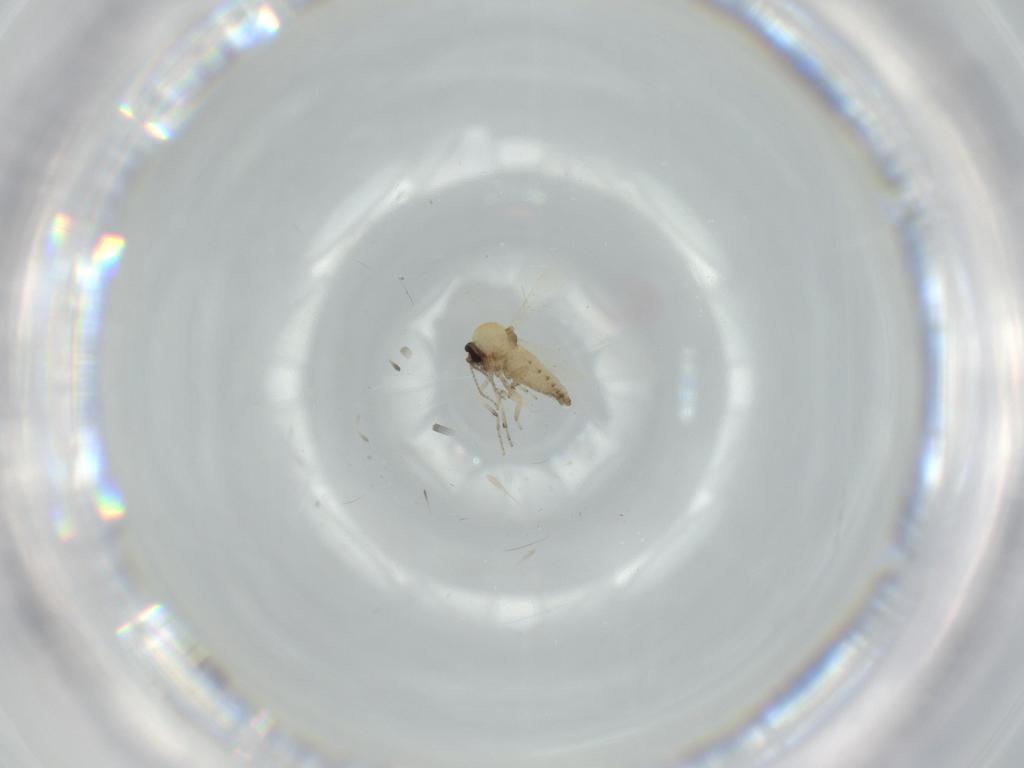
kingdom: Animalia
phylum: Arthropoda
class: Insecta
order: Diptera
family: Ceratopogonidae
